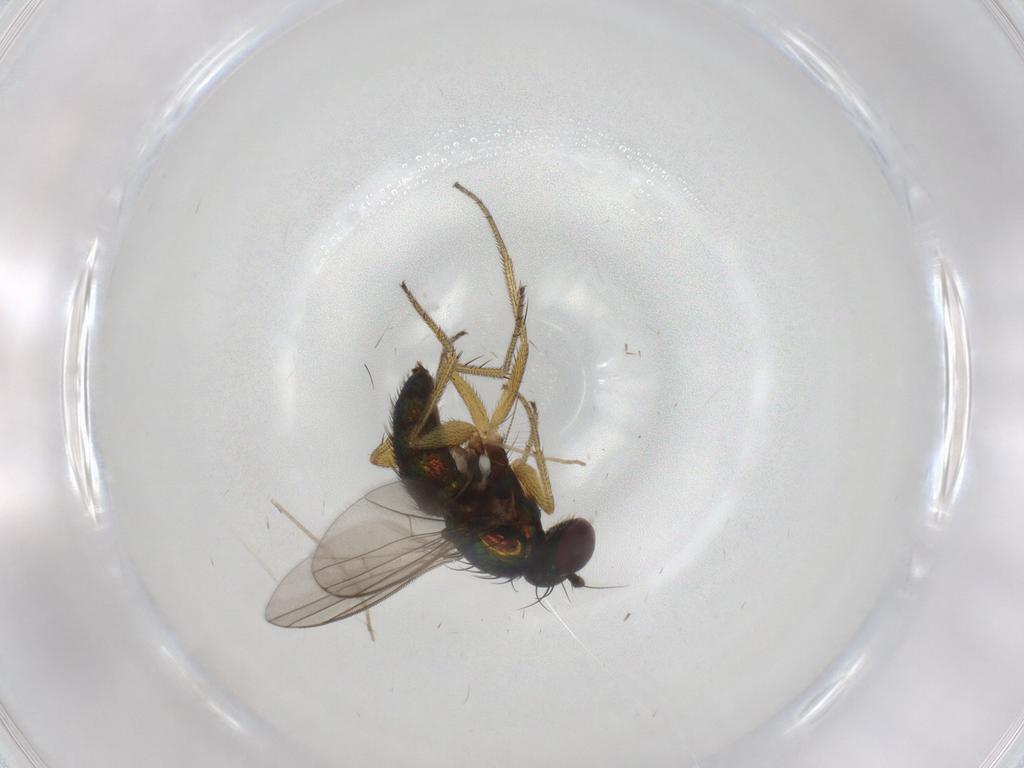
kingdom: Animalia
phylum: Arthropoda
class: Insecta
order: Diptera
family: Chironomidae
